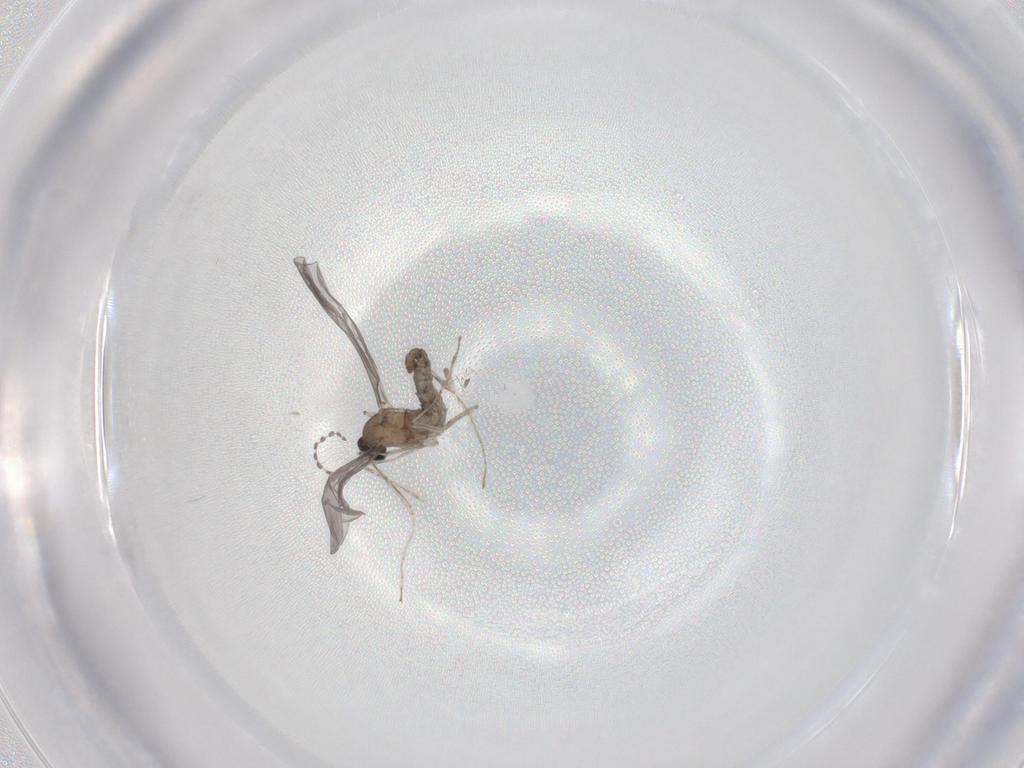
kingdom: Animalia
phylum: Arthropoda
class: Insecta
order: Diptera
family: Cecidomyiidae
